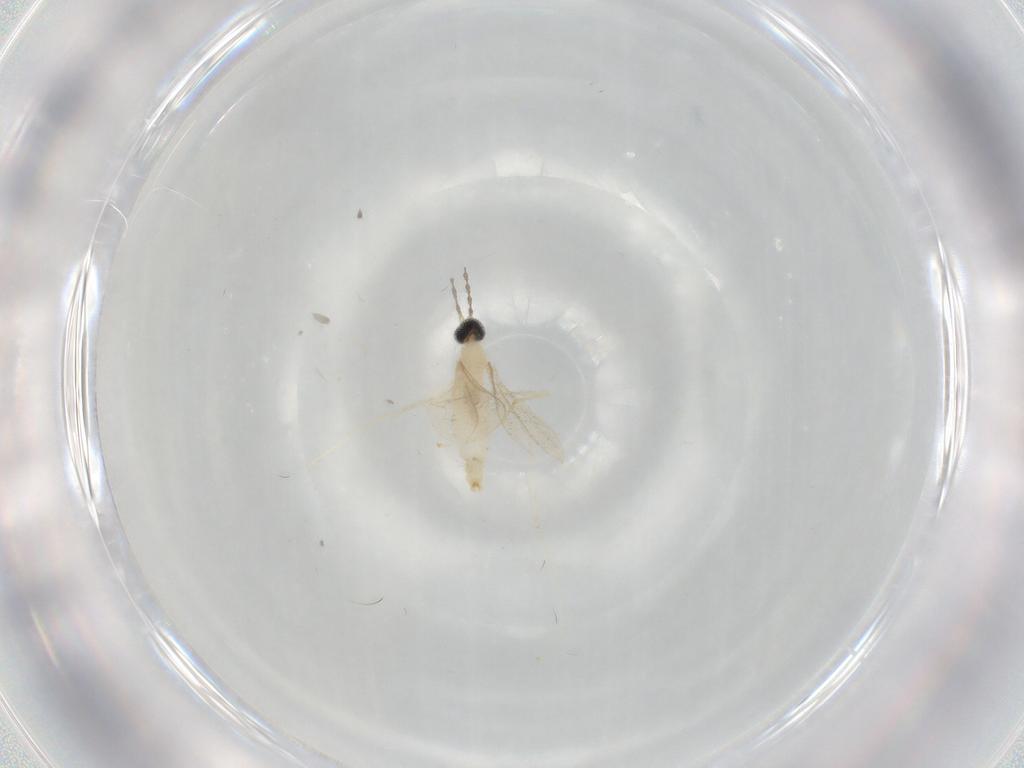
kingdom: Animalia
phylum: Arthropoda
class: Insecta
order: Diptera
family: Cecidomyiidae
